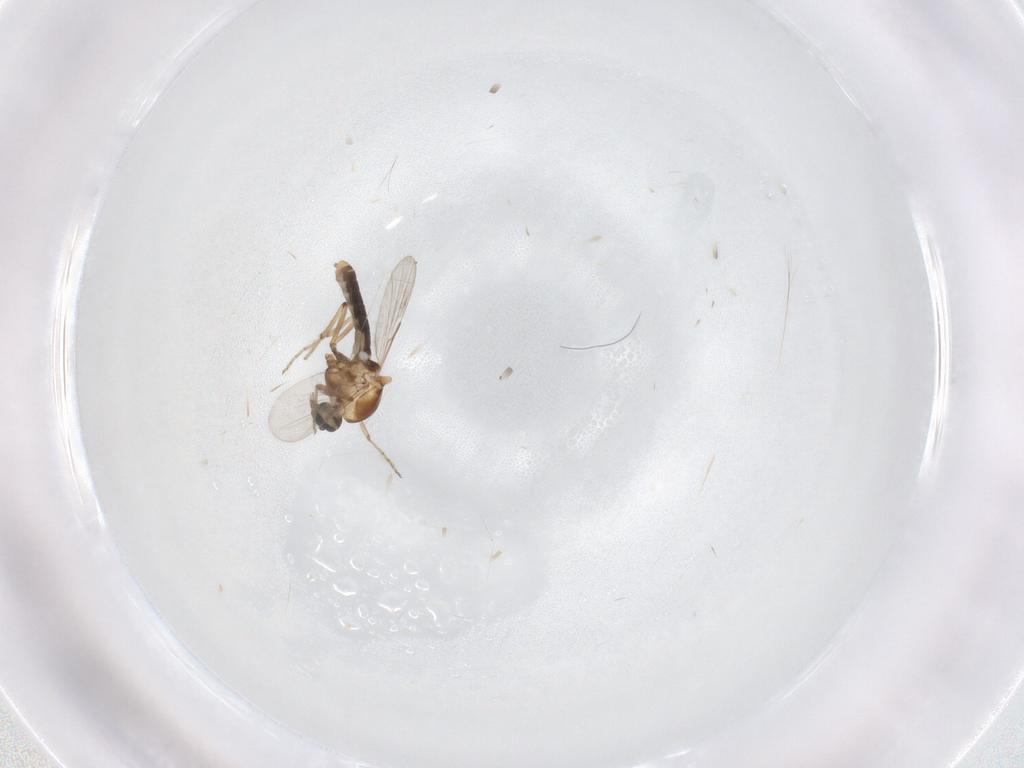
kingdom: Animalia
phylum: Arthropoda
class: Insecta
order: Diptera
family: Ceratopogonidae
